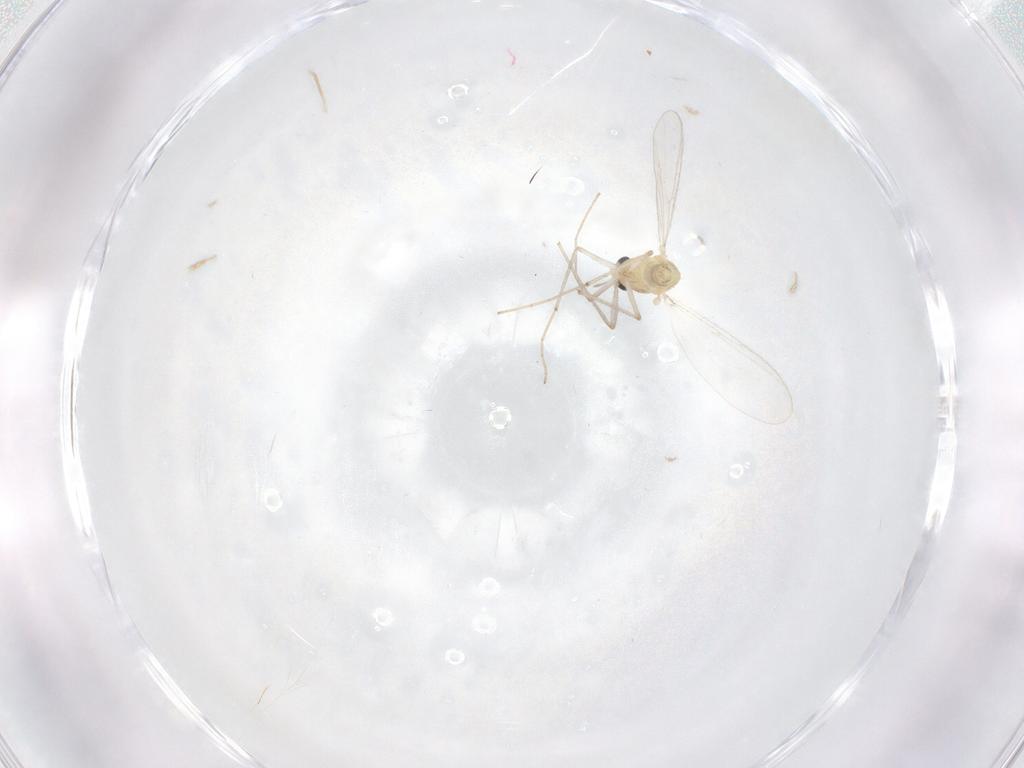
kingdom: Animalia
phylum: Arthropoda
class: Insecta
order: Diptera
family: Chironomidae
